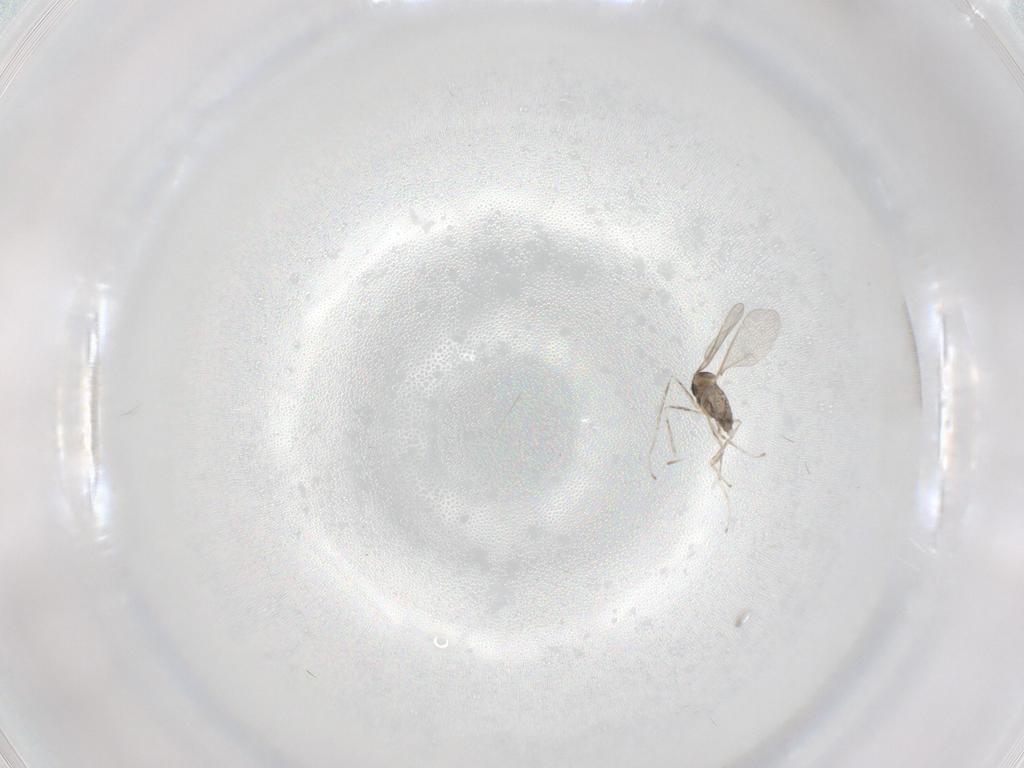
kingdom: Animalia
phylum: Arthropoda
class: Insecta
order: Diptera
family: Cecidomyiidae
